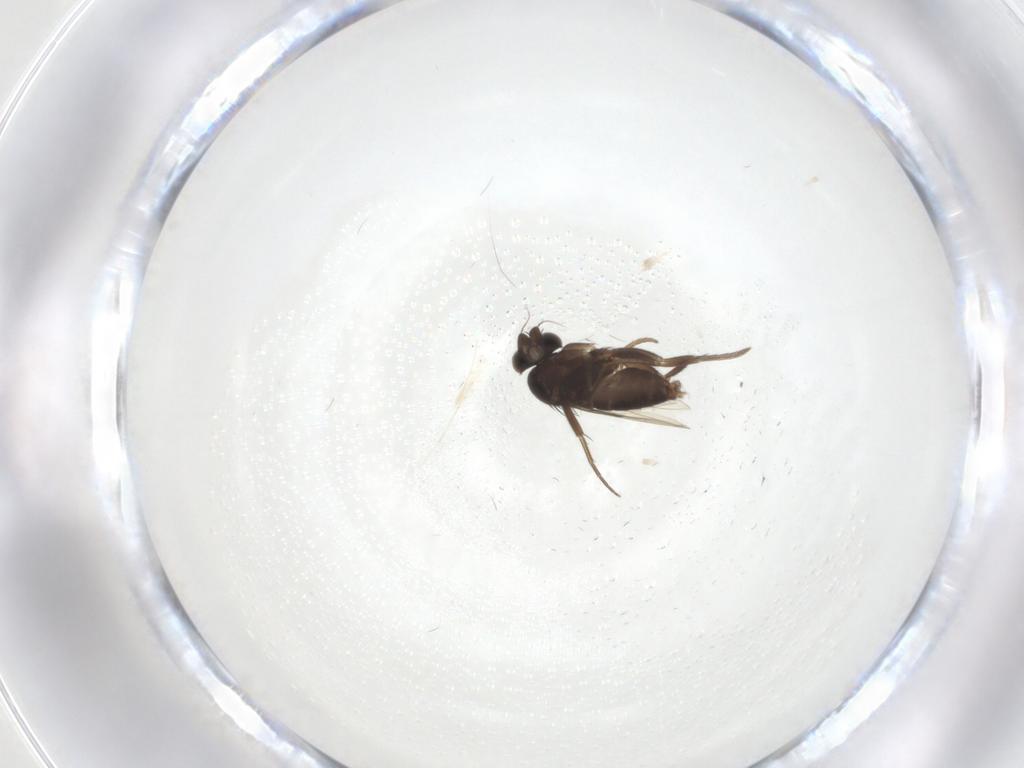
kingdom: Animalia
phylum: Arthropoda
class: Insecta
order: Diptera
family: Phoridae
